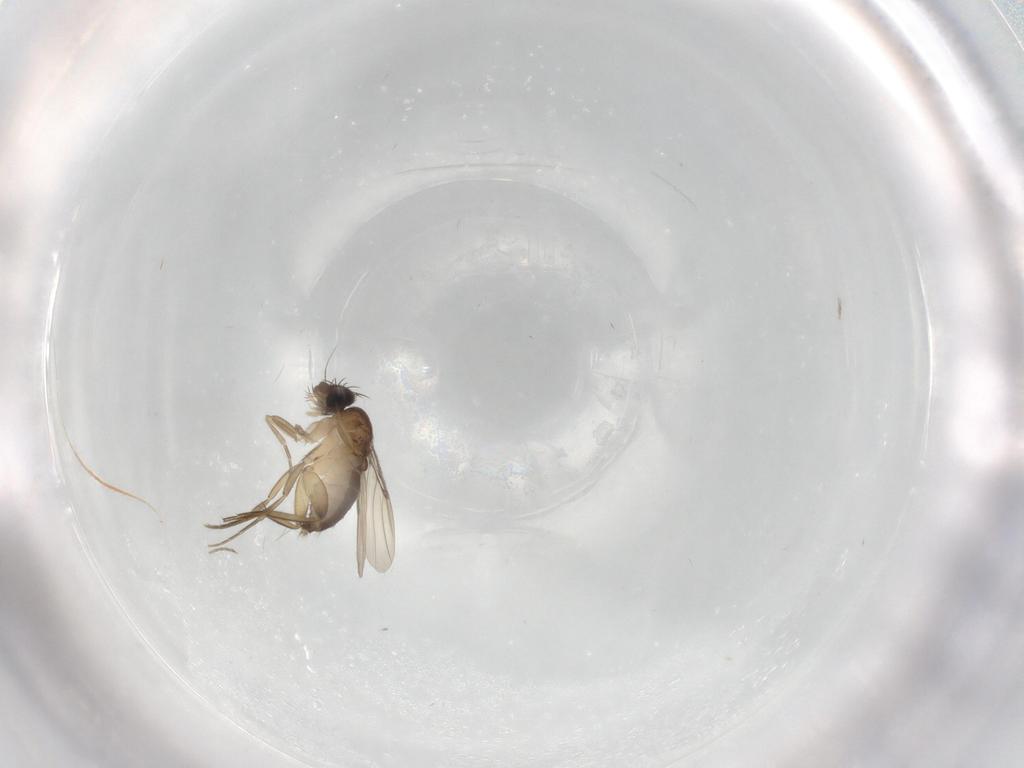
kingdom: Animalia
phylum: Arthropoda
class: Insecta
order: Diptera
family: Phoridae
